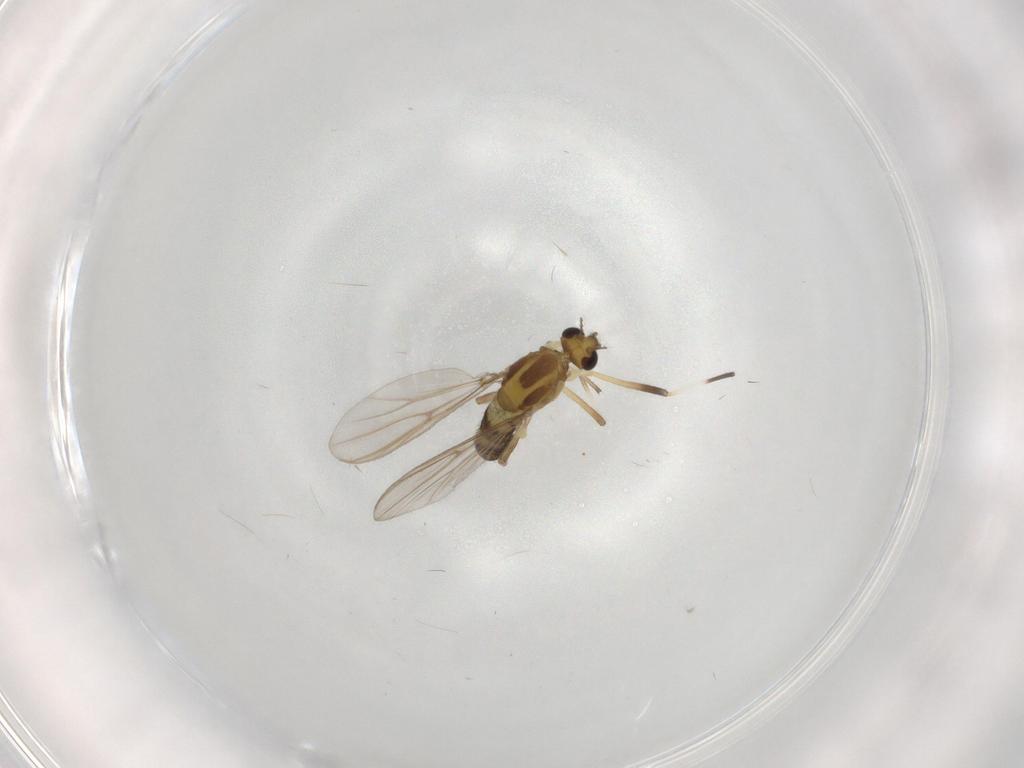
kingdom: Animalia
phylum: Arthropoda
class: Insecta
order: Diptera
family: Chironomidae
